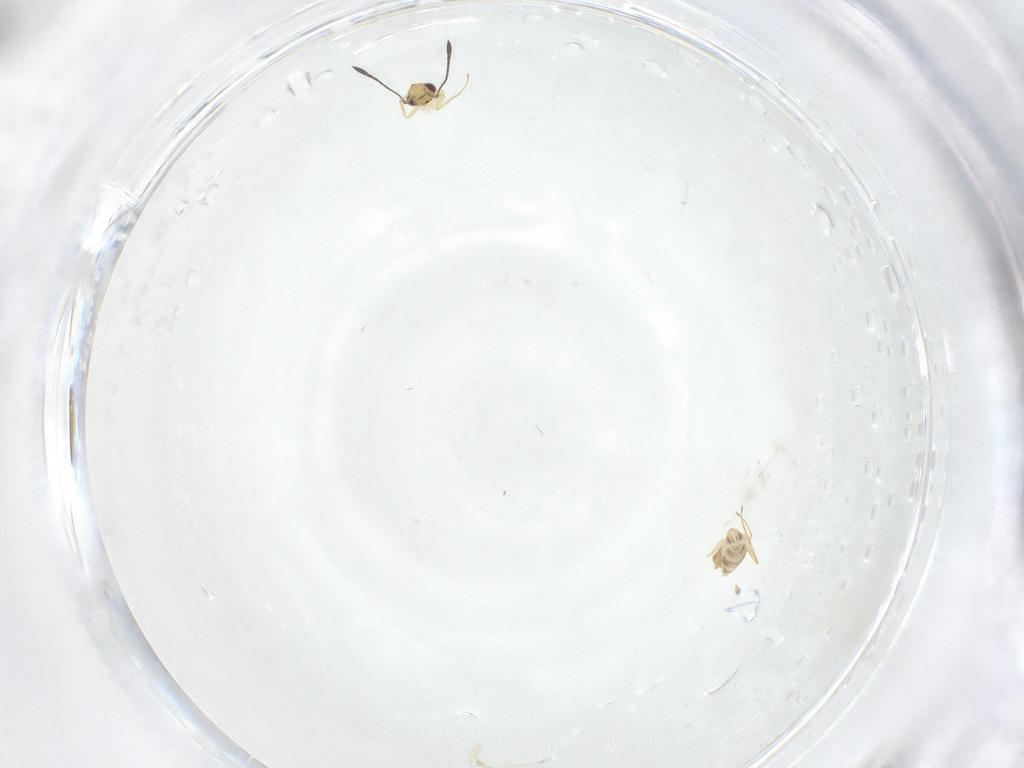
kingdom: Animalia
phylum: Arthropoda
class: Insecta
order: Hymenoptera
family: Mymaridae
